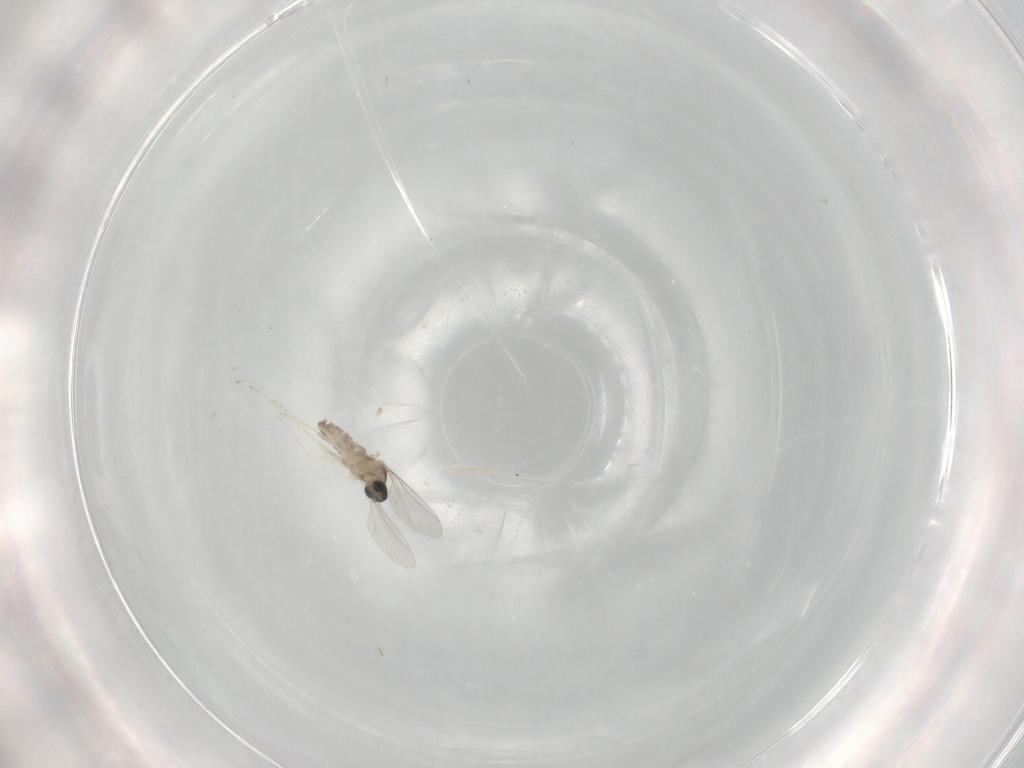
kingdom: Animalia
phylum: Arthropoda
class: Insecta
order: Diptera
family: Cecidomyiidae
